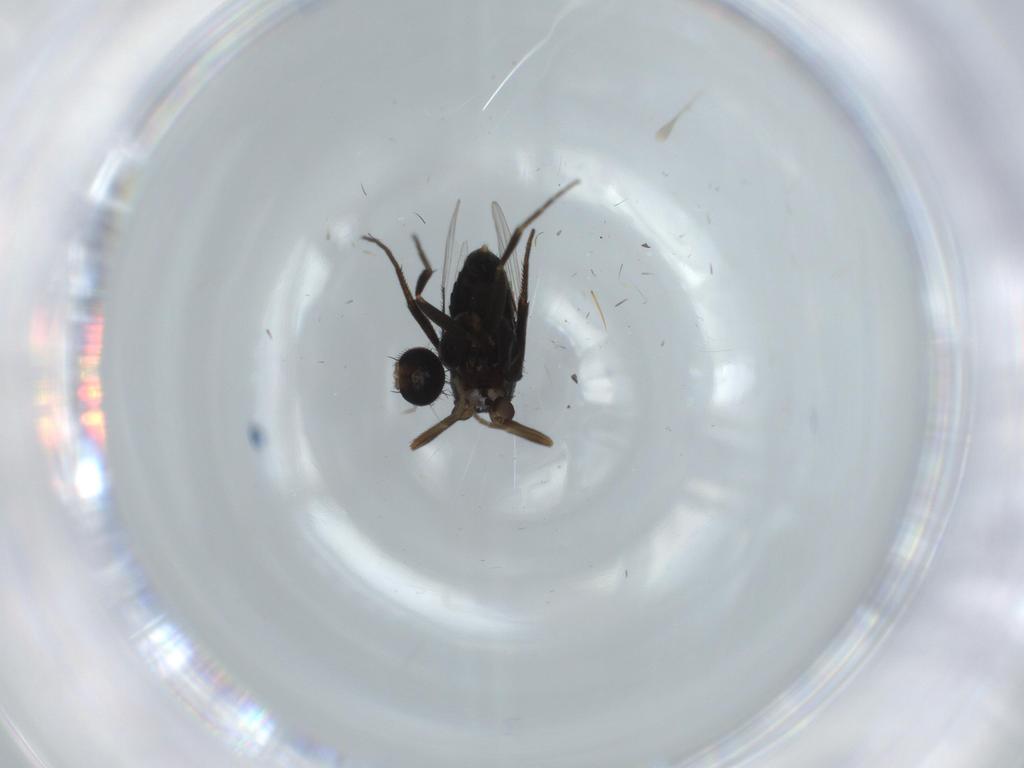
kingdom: Animalia
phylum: Arthropoda
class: Insecta
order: Diptera
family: Phoridae
